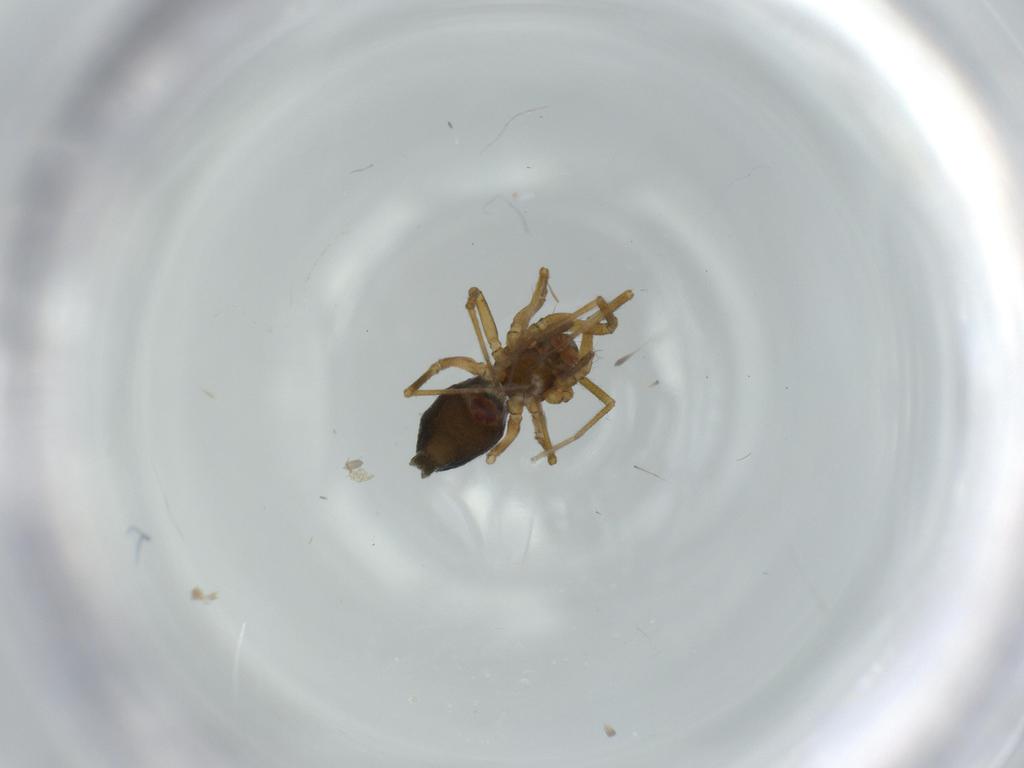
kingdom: Animalia
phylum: Arthropoda
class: Arachnida
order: Araneae
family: Linyphiidae
